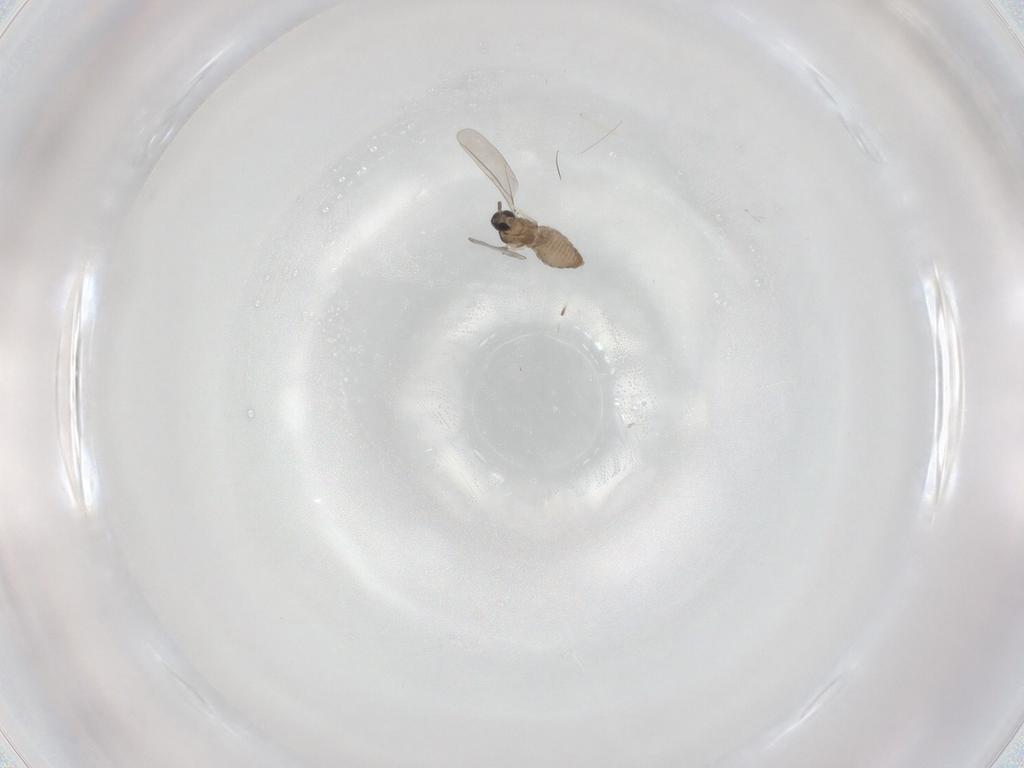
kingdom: Animalia
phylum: Arthropoda
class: Insecta
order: Diptera
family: Cecidomyiidae
